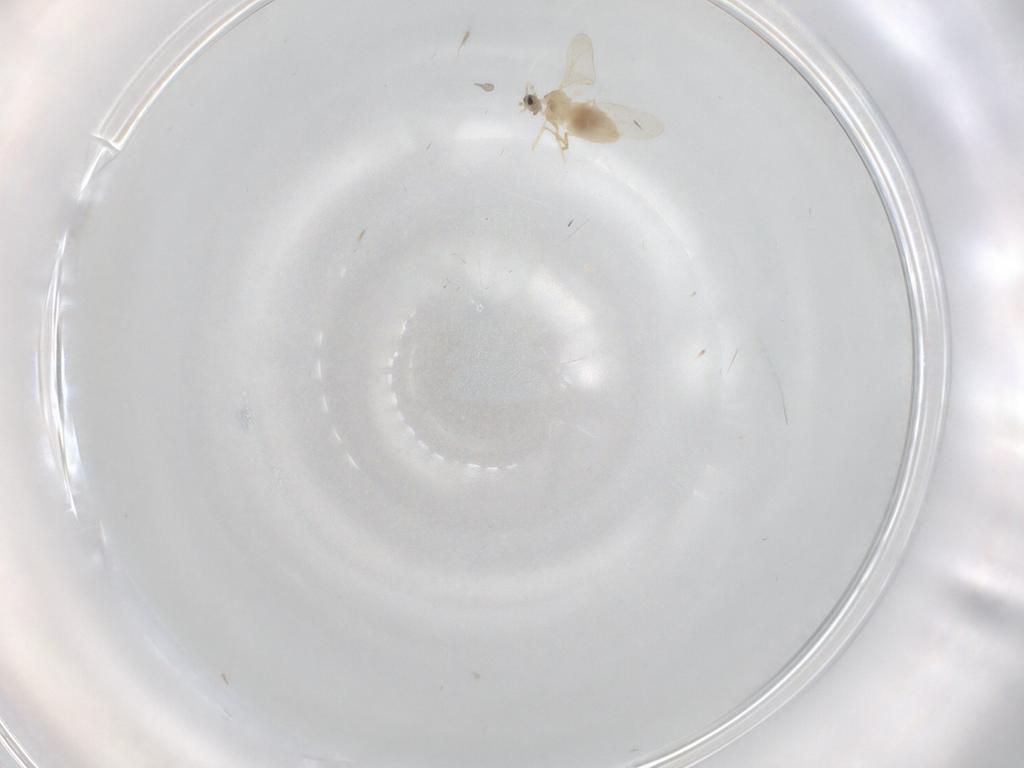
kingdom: Animalia
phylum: Arthropoda
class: Insecta
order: Diptera
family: Cecidomyiidae
